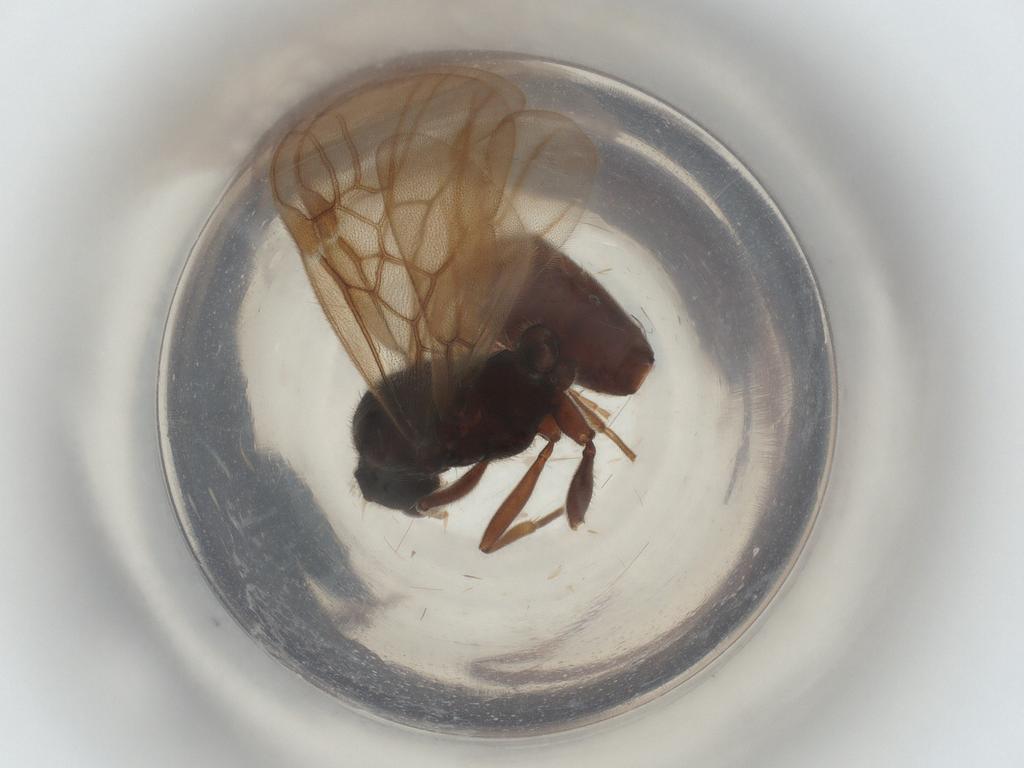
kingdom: Animalia
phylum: Arthropoda
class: Insecta
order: Hymenoptera
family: Formicidae
